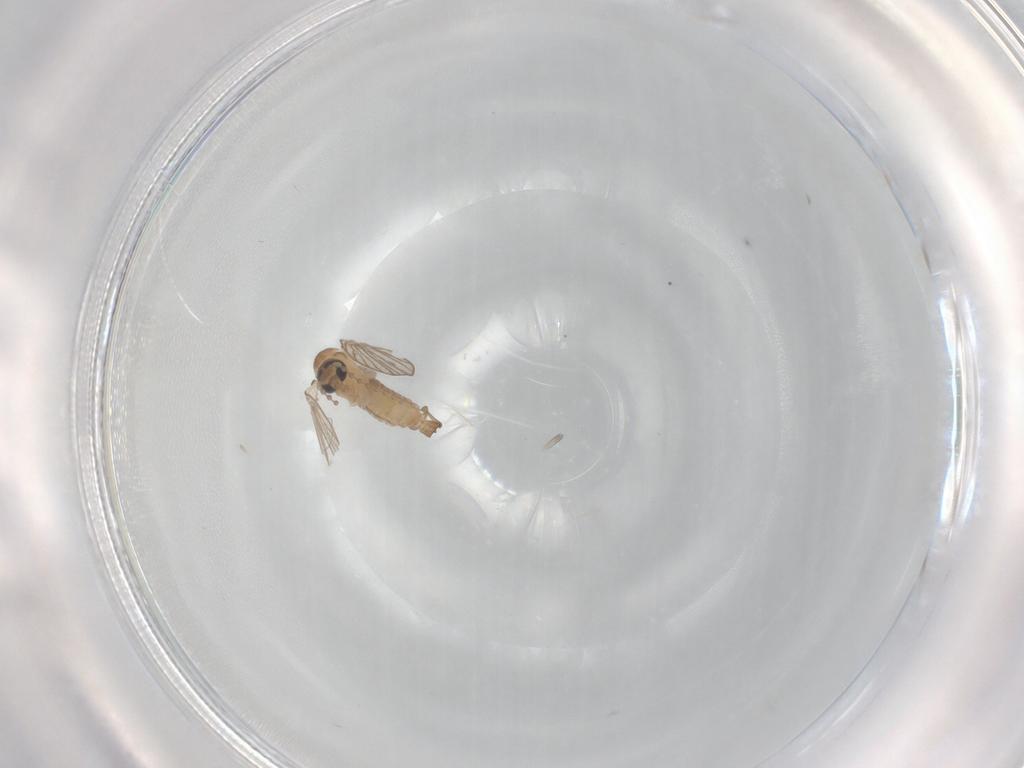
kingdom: Animalia
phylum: Arthropoda
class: Insecta
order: Diptera
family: Psychodidae
